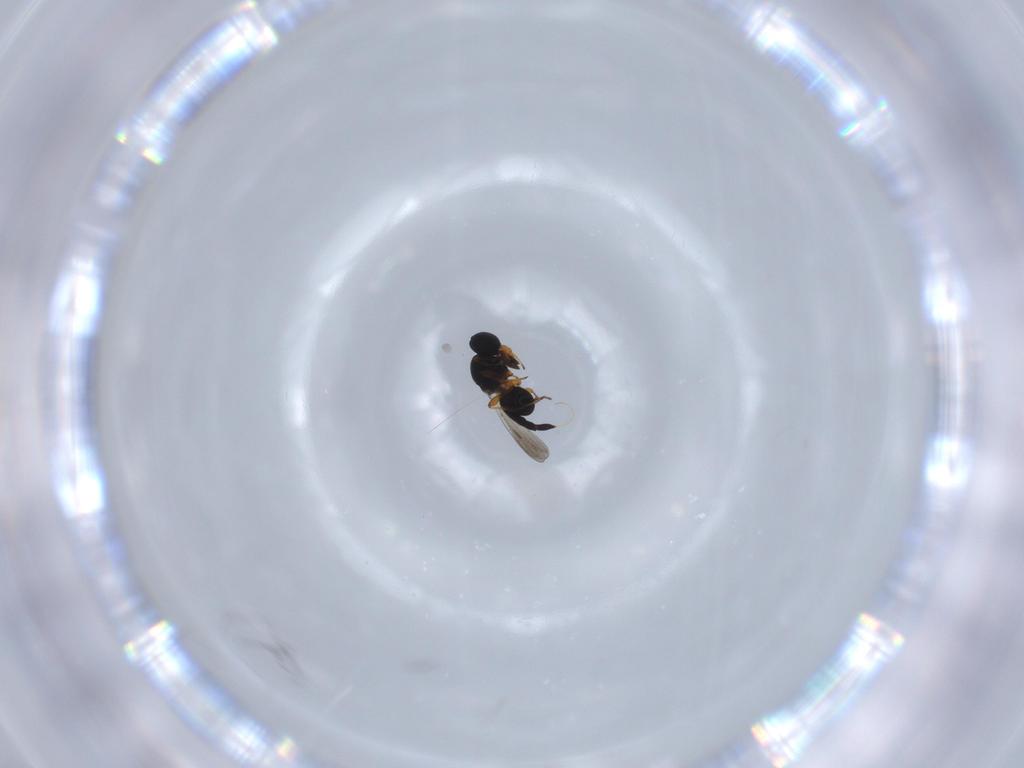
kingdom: Animalia
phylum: Arthropoda
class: Insecta
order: Hymenoptera
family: Platygastridae
